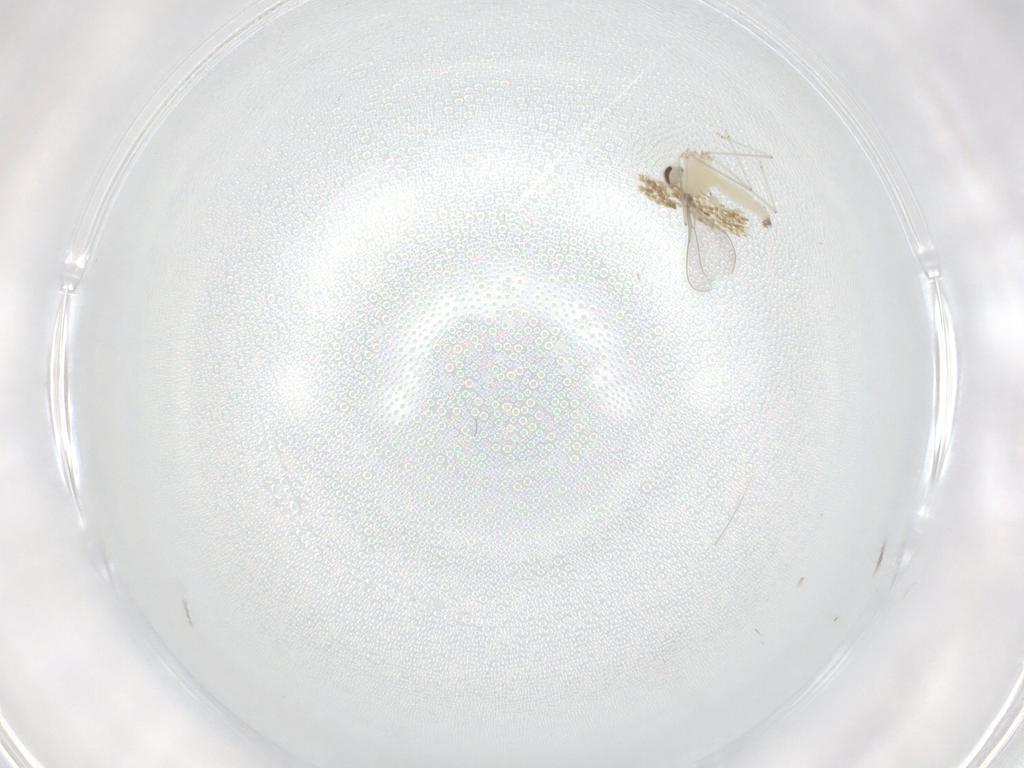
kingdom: Animalia
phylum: Arthropoda
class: Insecta
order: Diptera
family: Cecidomyiidae
